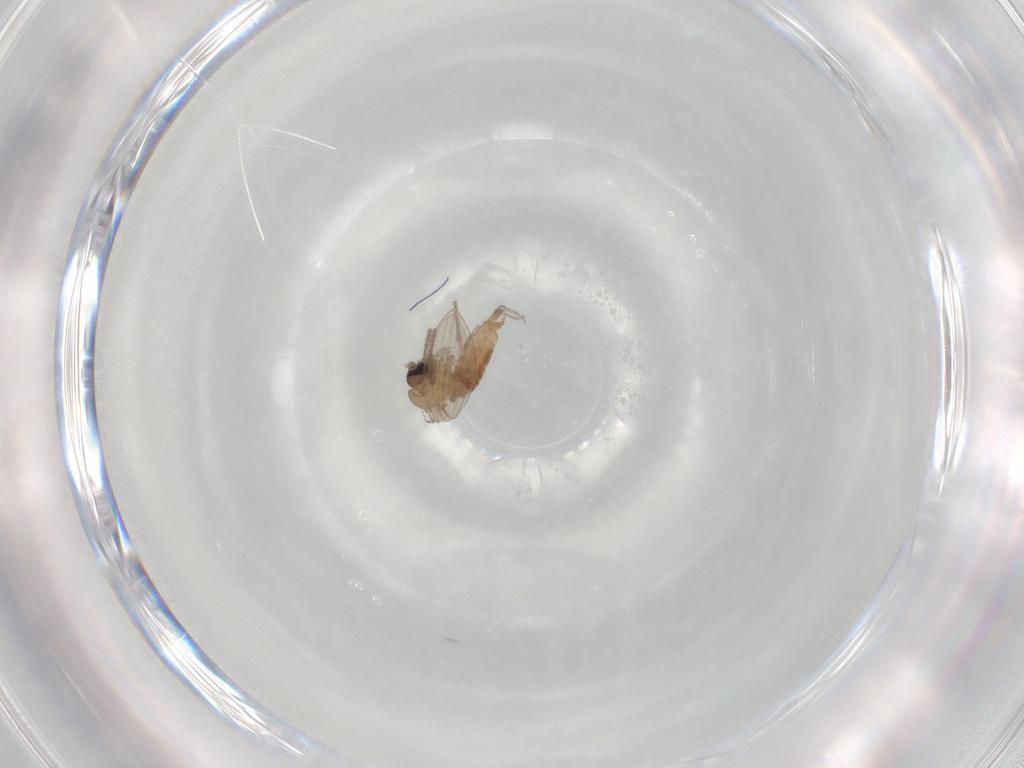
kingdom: Animalia
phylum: Arthropoda
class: Insecta
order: Diptera
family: Psychodidae
